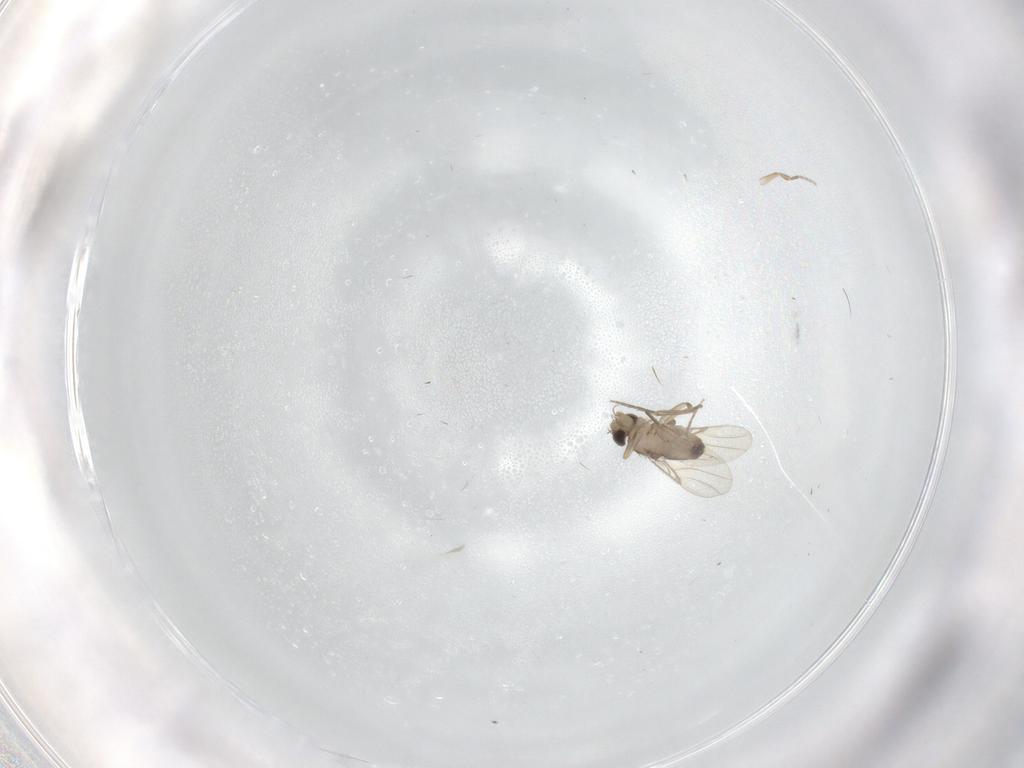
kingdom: Animalia
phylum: Arthropoda
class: Insecta
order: Diptera
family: Phoridae
